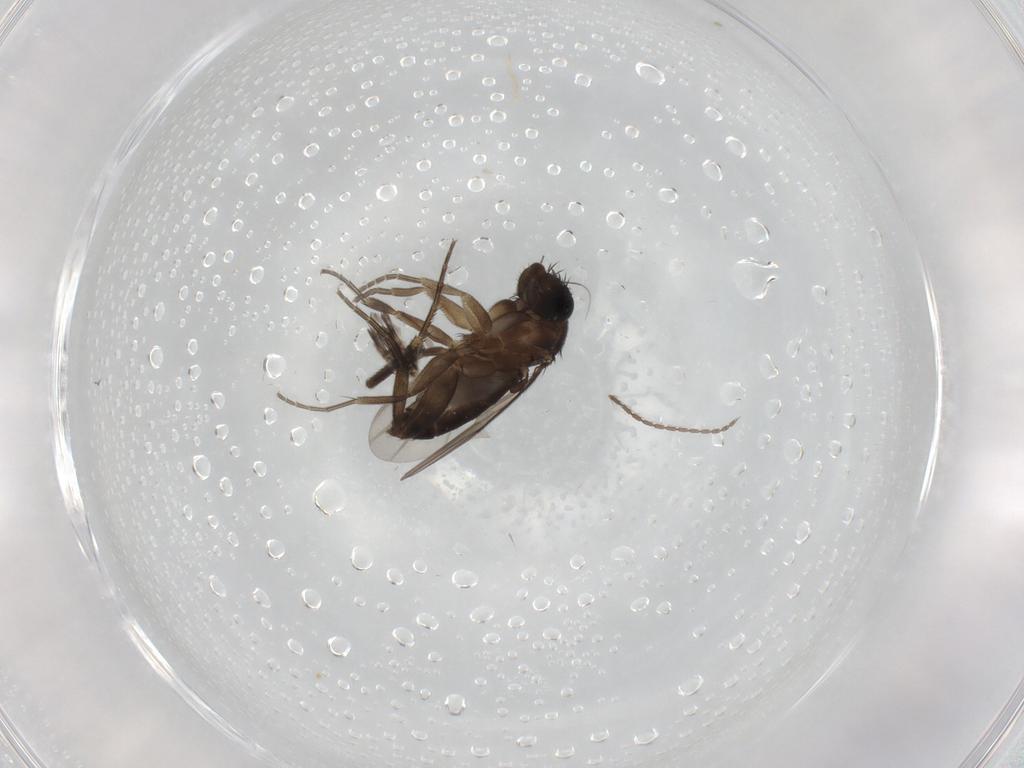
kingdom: Animalia
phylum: Arthropoda
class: Insecta
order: Diptera
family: Phoridae
